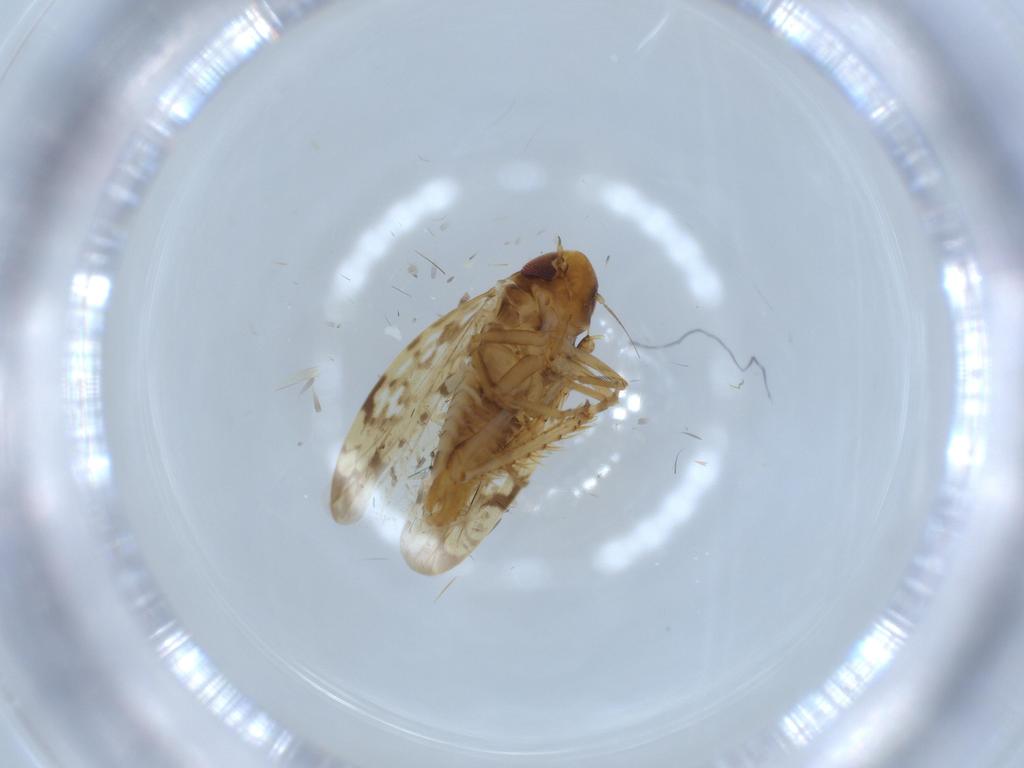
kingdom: Animalia
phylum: Arthropoda
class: Insecta
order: Hemiptera
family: Cicadellidae
